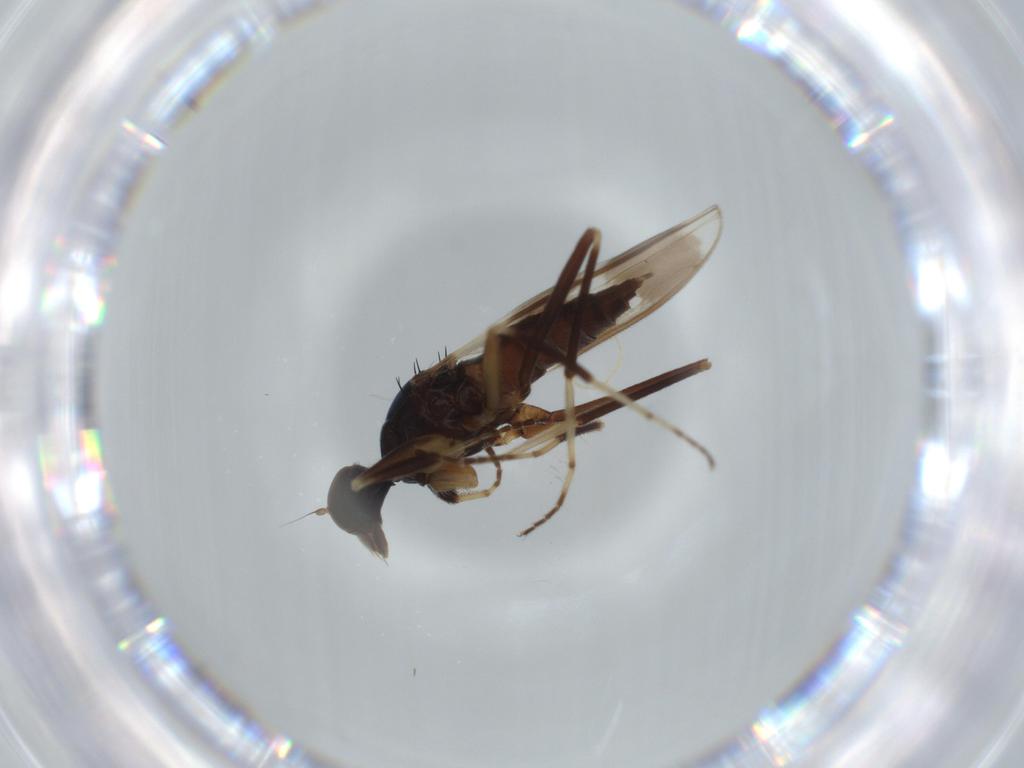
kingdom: Animalia
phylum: Arthropoda
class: Insecta
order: Diptera
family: Hybotidae
